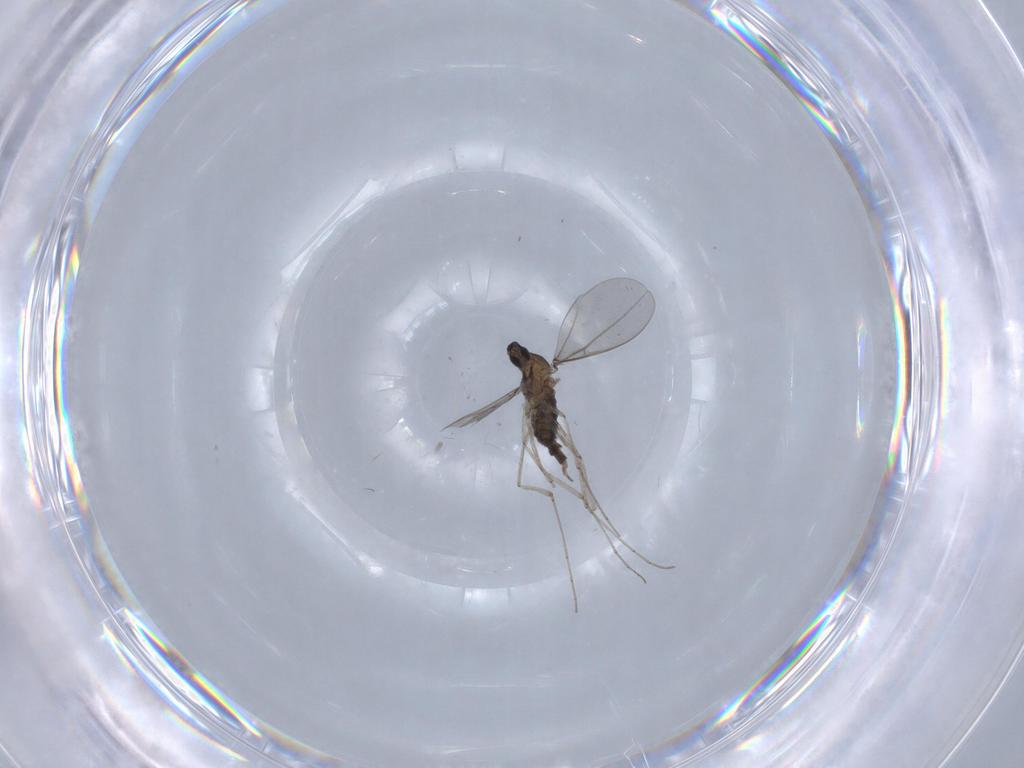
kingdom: Animalia
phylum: Arthropoda
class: Insecta
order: Diptera
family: Cecidomyiidae
